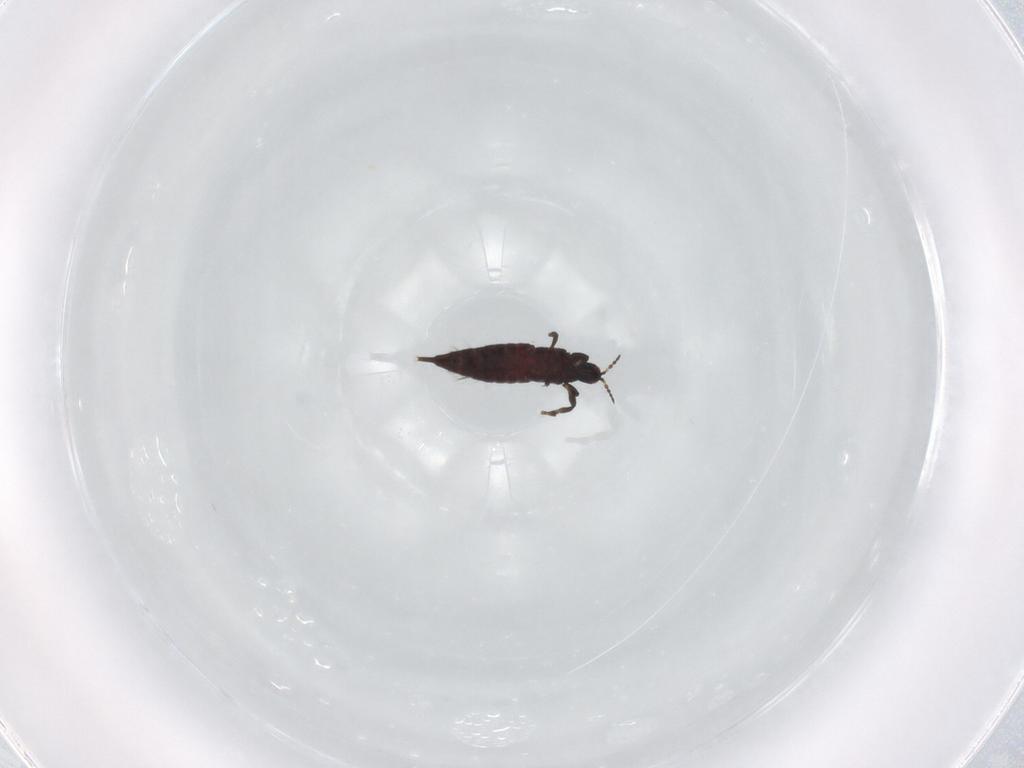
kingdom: Animalia
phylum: Arthropoda
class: Insecta
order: Thysanoptera
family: Phlaeothripidae
